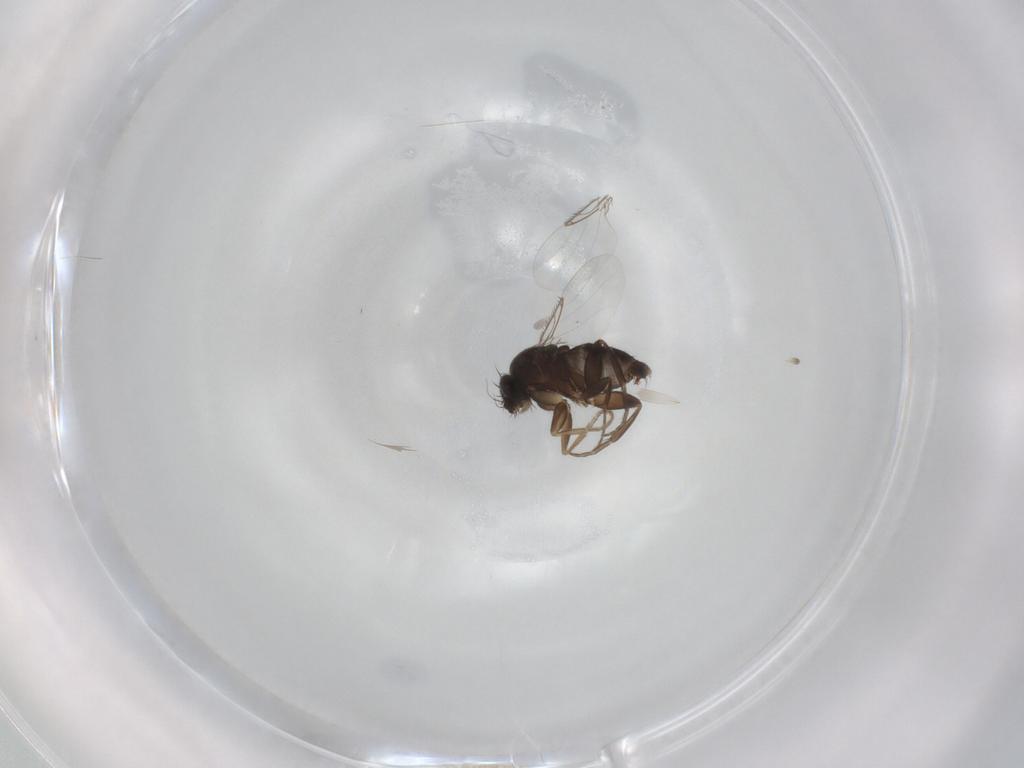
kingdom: Animalia
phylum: Arthropoda
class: Insecta
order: Diptera
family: Phoridae
